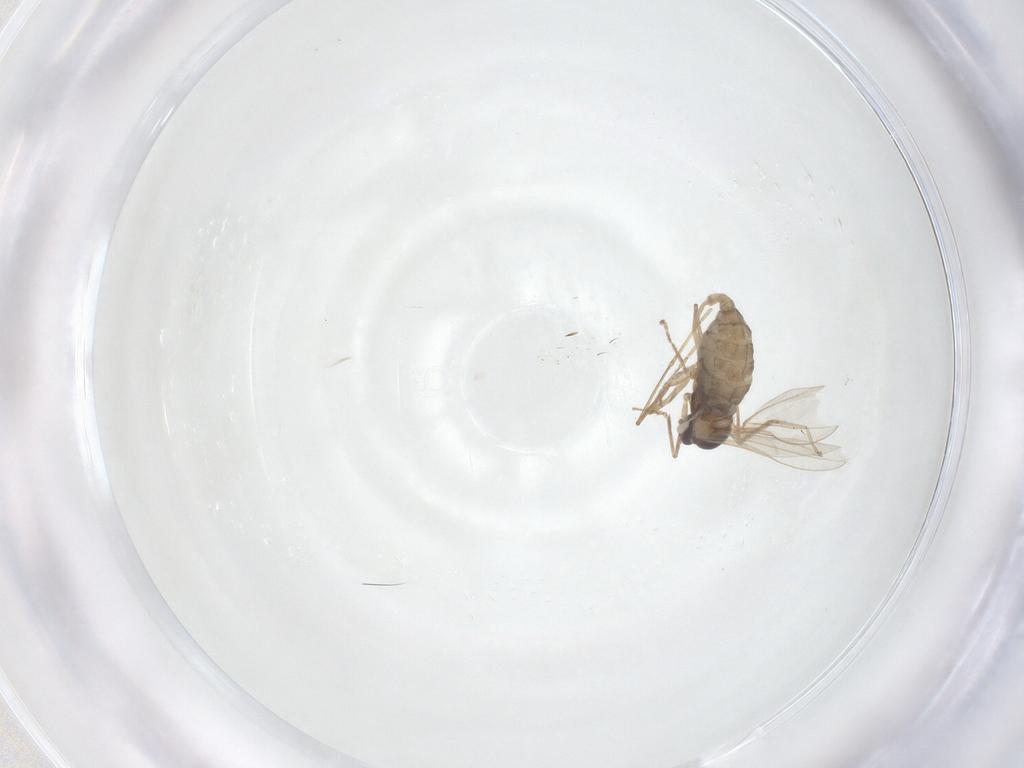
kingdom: Animalia
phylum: Arthropoda
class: Insecta
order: Diptera
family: Cecidomyiidae
